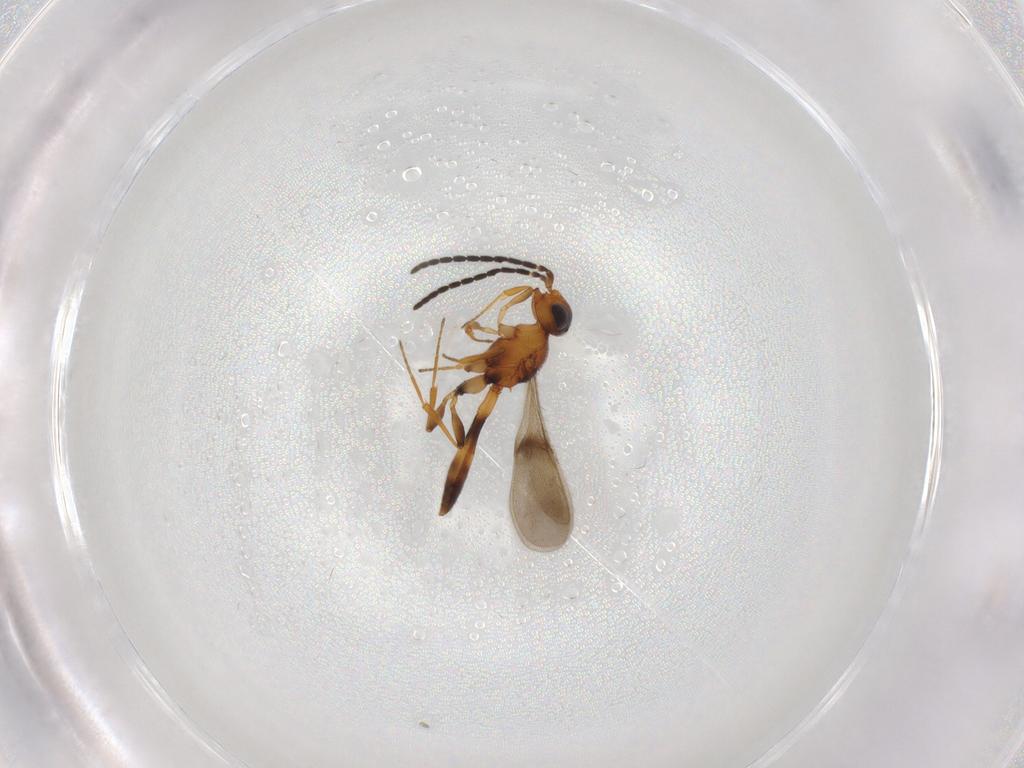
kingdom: Animalia
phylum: Arthropoda
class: Insecta
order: Hymenoptera
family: Scelionidae
